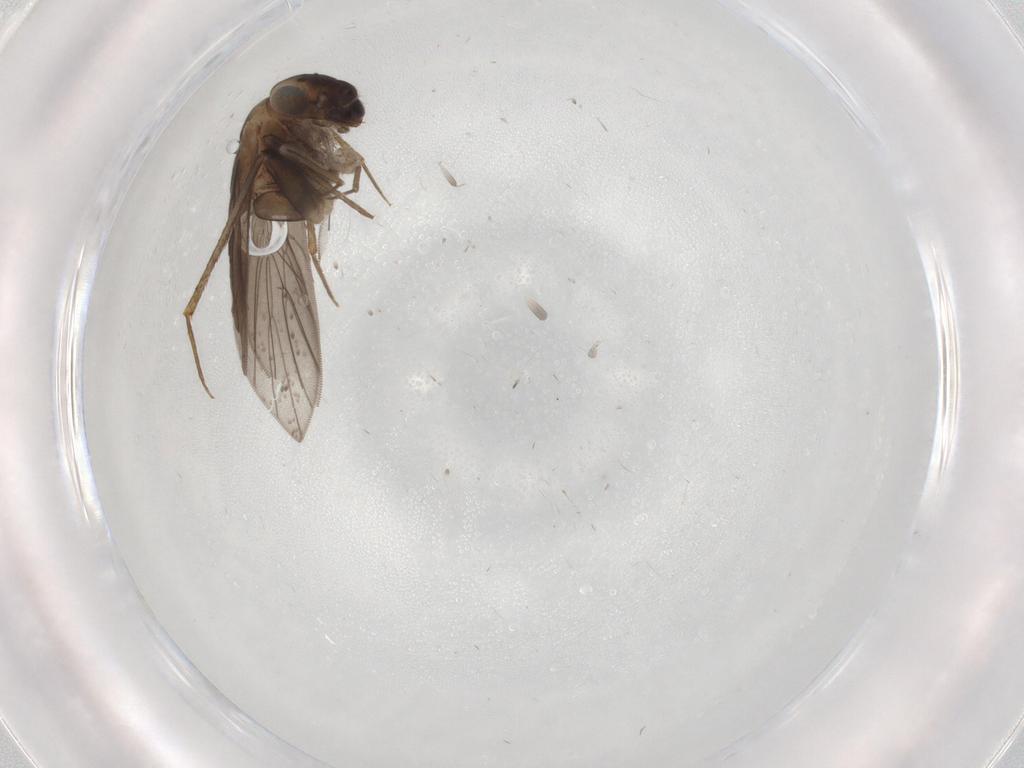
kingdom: Animalia
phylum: Arthropoda
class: Insecta
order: Psocodea
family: Lepidopsocidae
